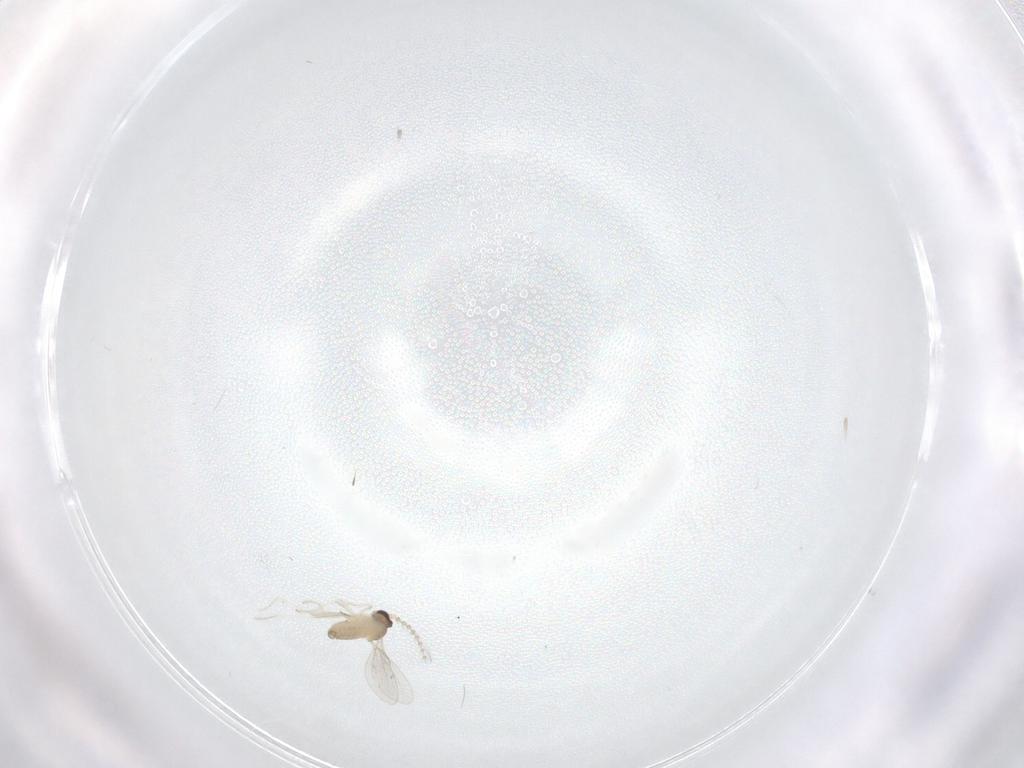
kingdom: Animalia
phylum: Arthropoda
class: Insecta
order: Diptera
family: Cecidomyiidae
